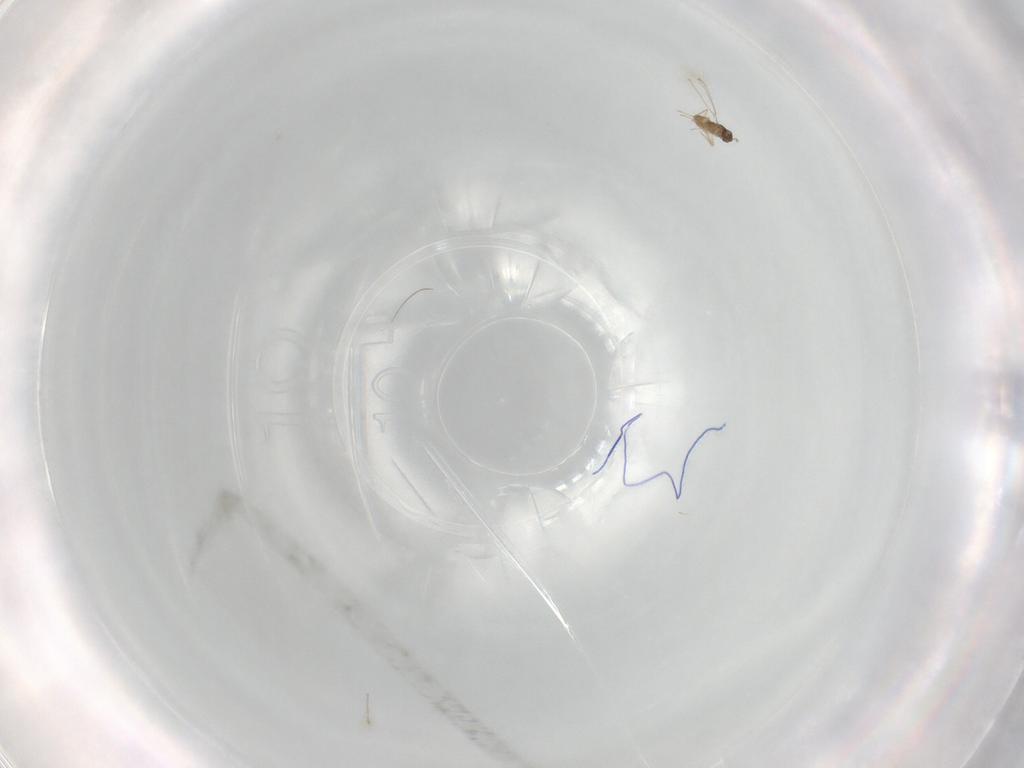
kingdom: Animalia
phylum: Arthropoda
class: Insecta
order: Hymenoptera
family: Mymaridae
